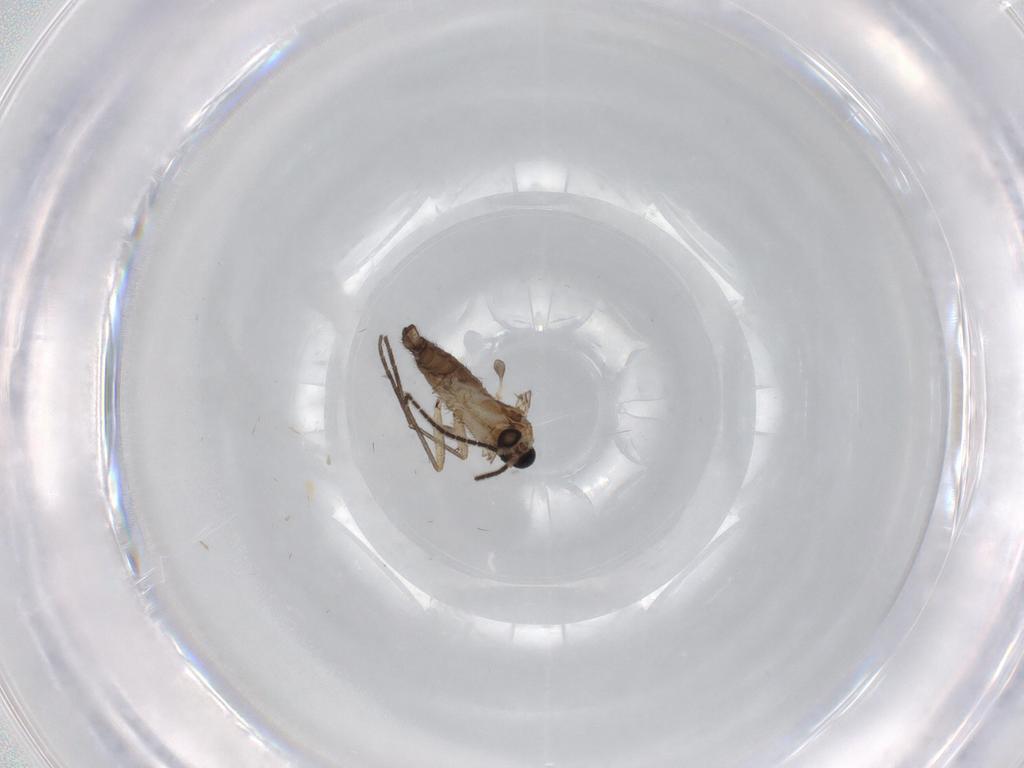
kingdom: Animalia
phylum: Arthropoda
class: Insecta
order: Diptera
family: Sciaridae
